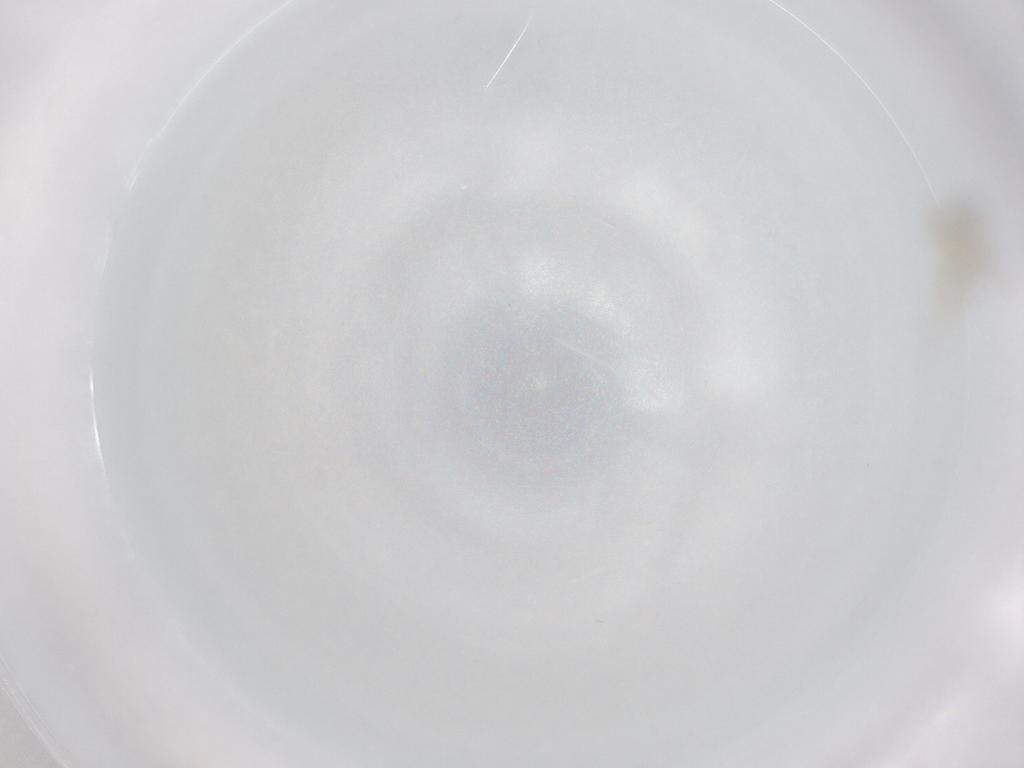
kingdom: Animalia
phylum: Arthropoda
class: Collembola
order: Entomobryomorpha
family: Entomobryidae
